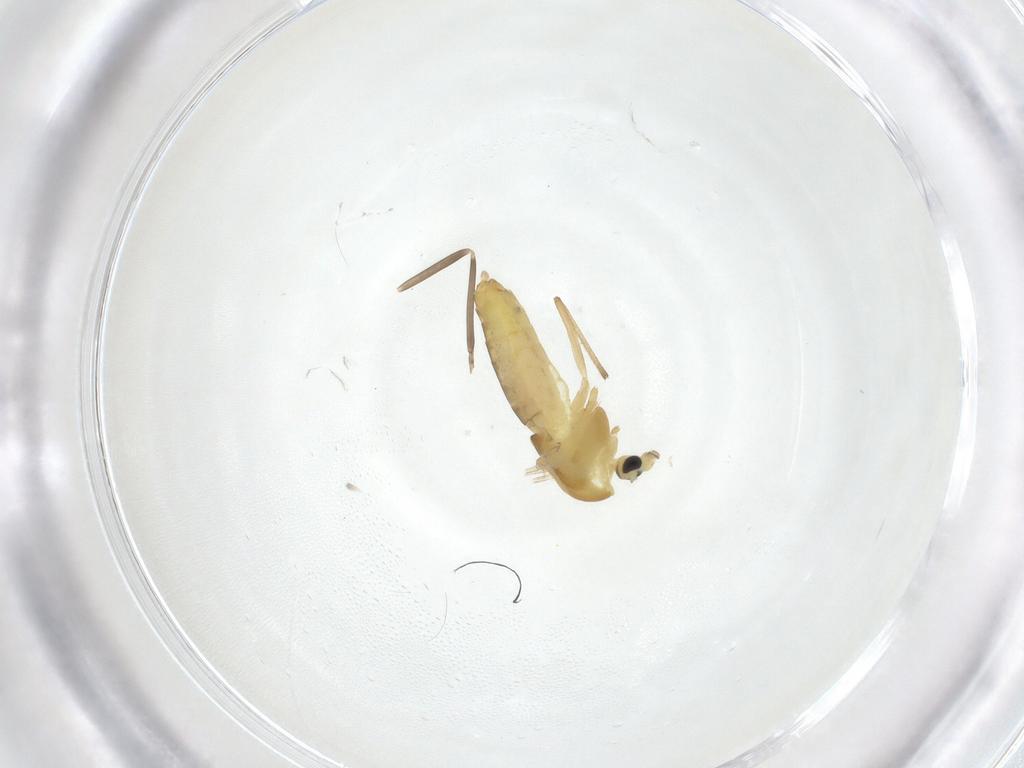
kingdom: Animalia
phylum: Arthropoda
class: Insecta
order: Diptera
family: Chironomidae
